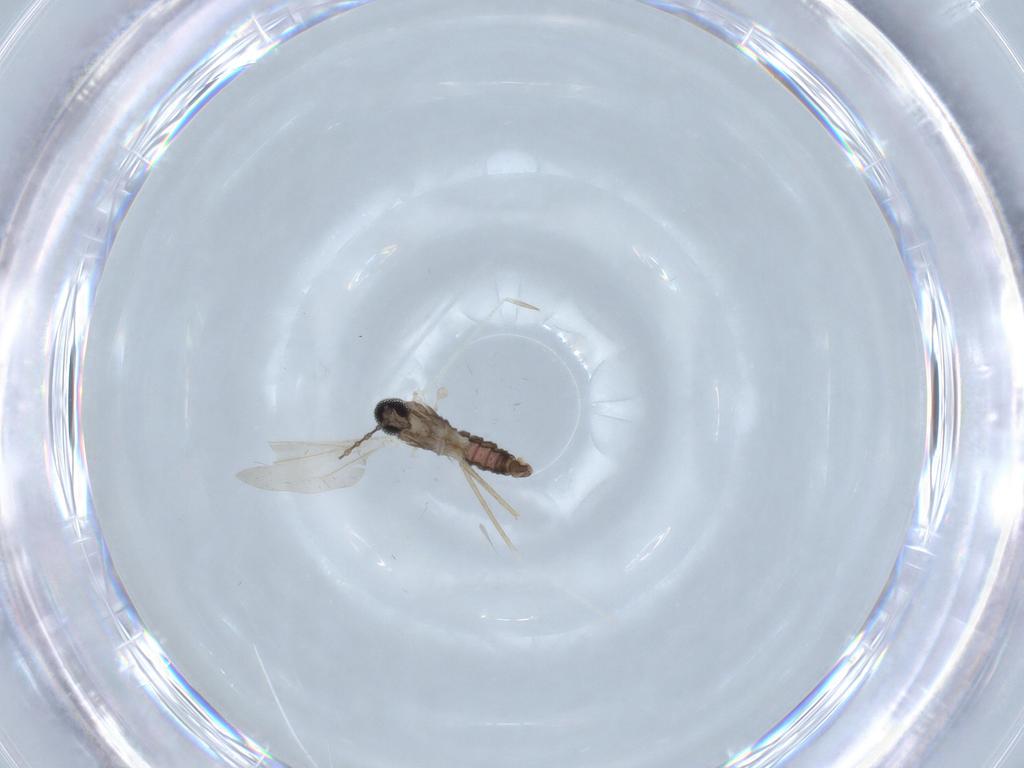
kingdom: Animalia
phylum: Arthropoda
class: Insecta
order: Diptera
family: Cecidomyiidae
